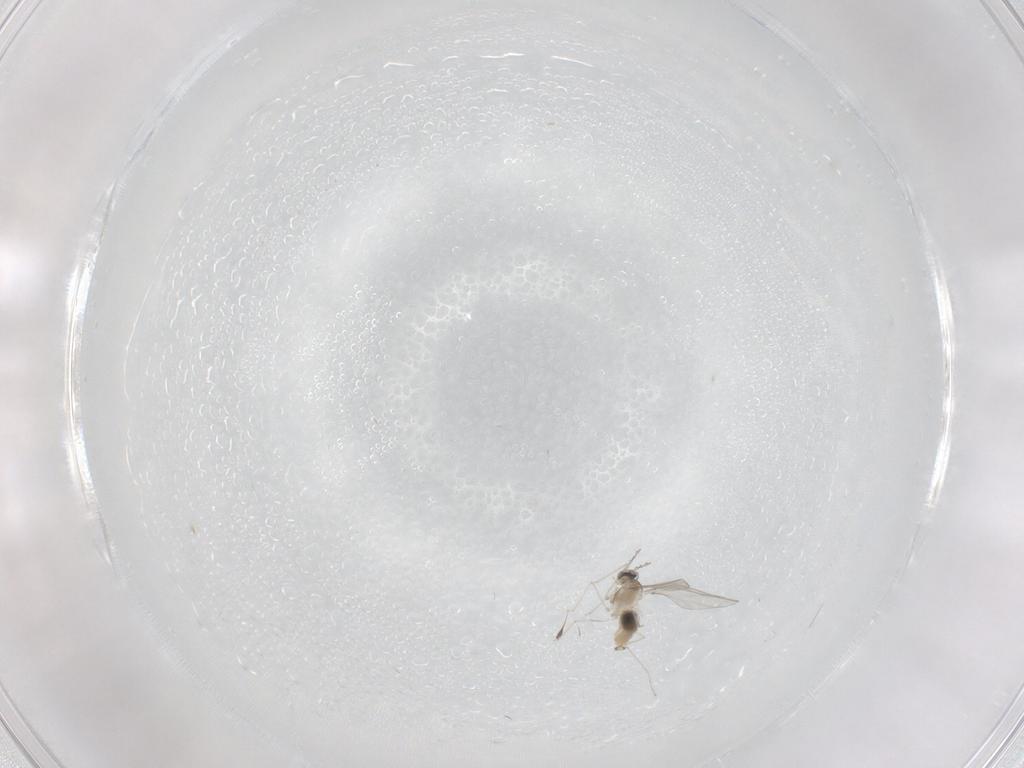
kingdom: Animalia
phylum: Arthropoda
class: Insecta
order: Diptera
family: Cecidomyiidae
